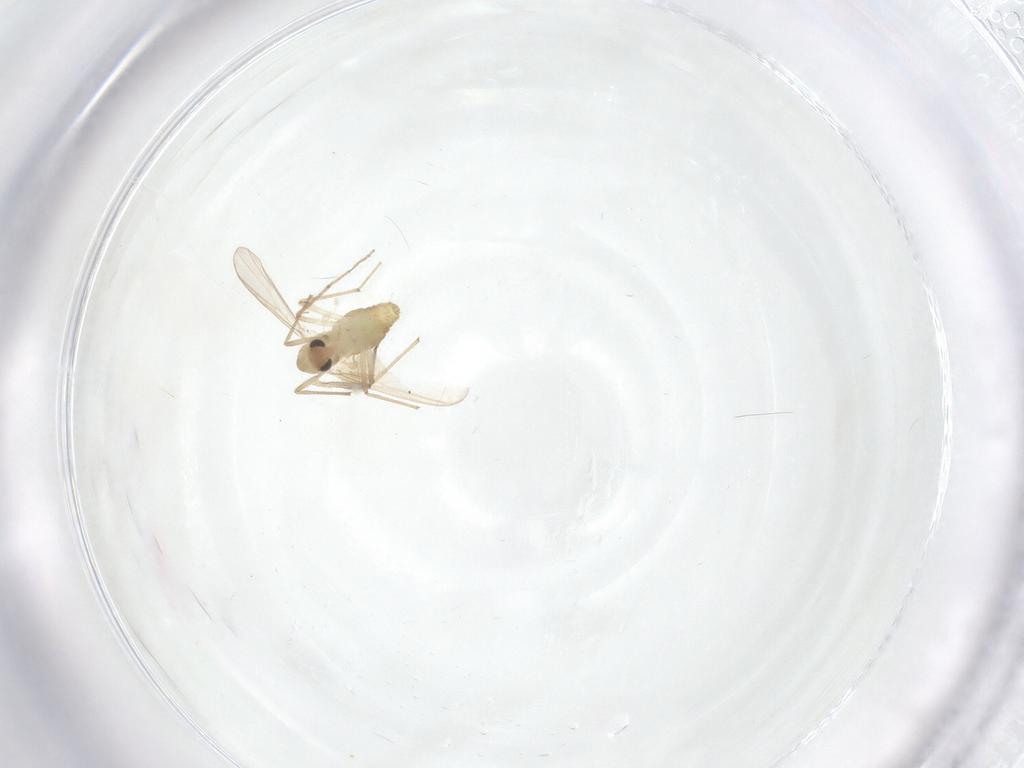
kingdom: Animalia
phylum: Arthropoda
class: Insecta
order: Diptera
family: Chironomidae
